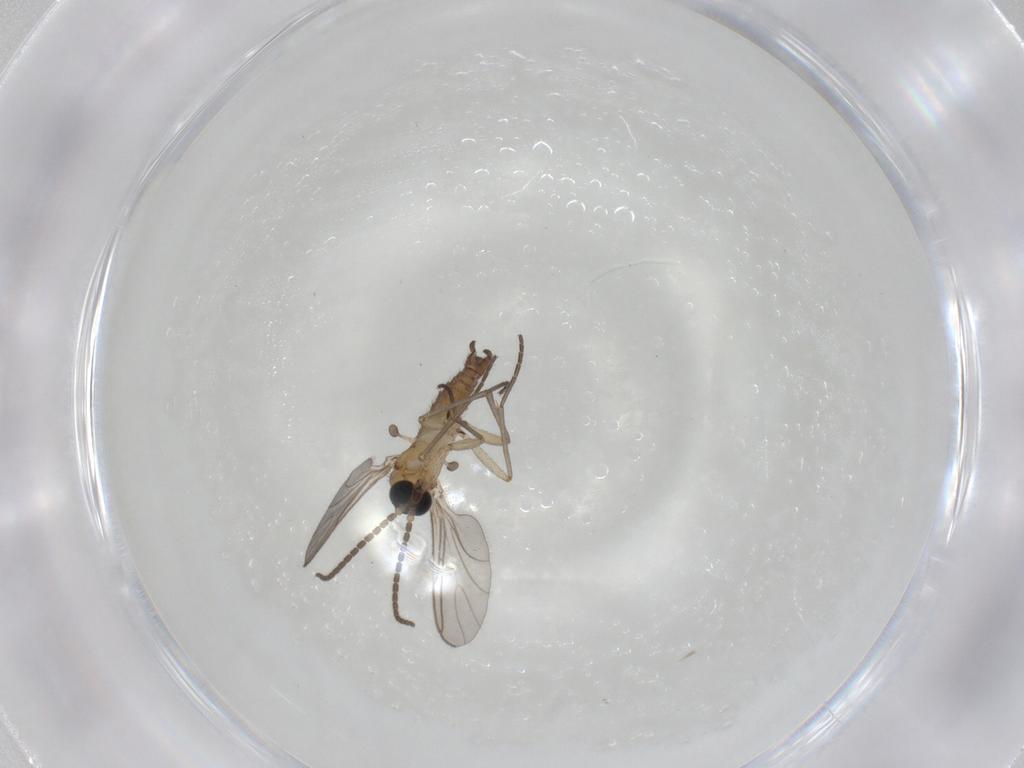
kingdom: Animalia
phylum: Arthropoda
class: Insecta
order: Diptera
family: Sciaridae
